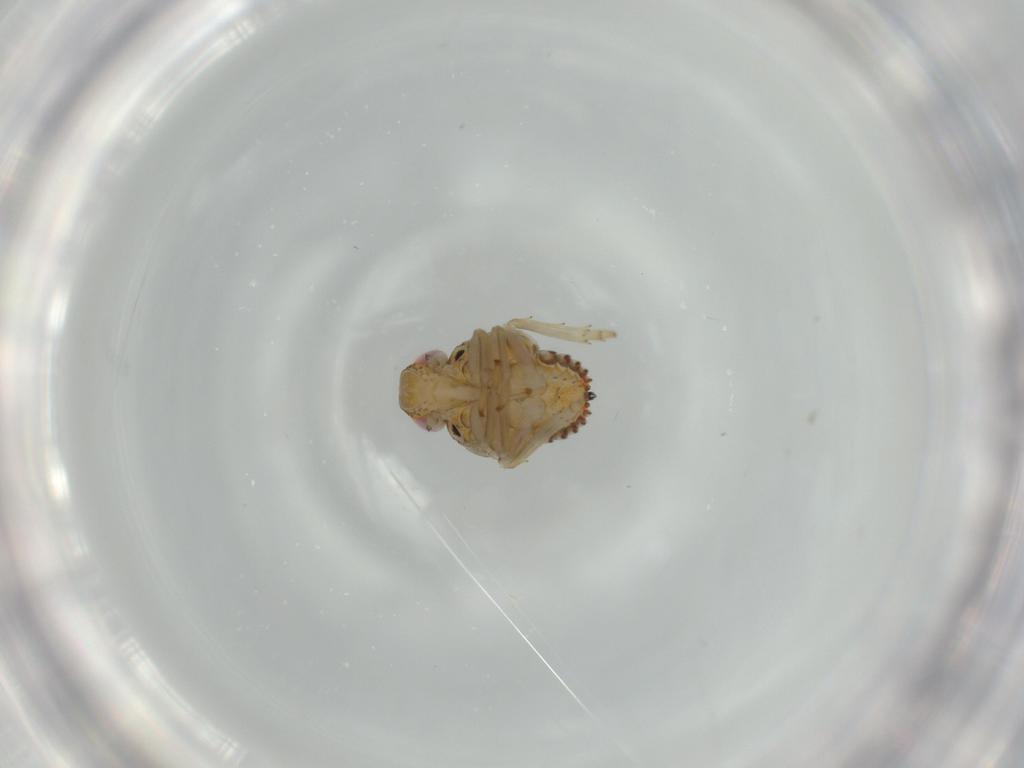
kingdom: Animalia
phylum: Arthropoda
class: Insecta
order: Hemiptera
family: Issidae
